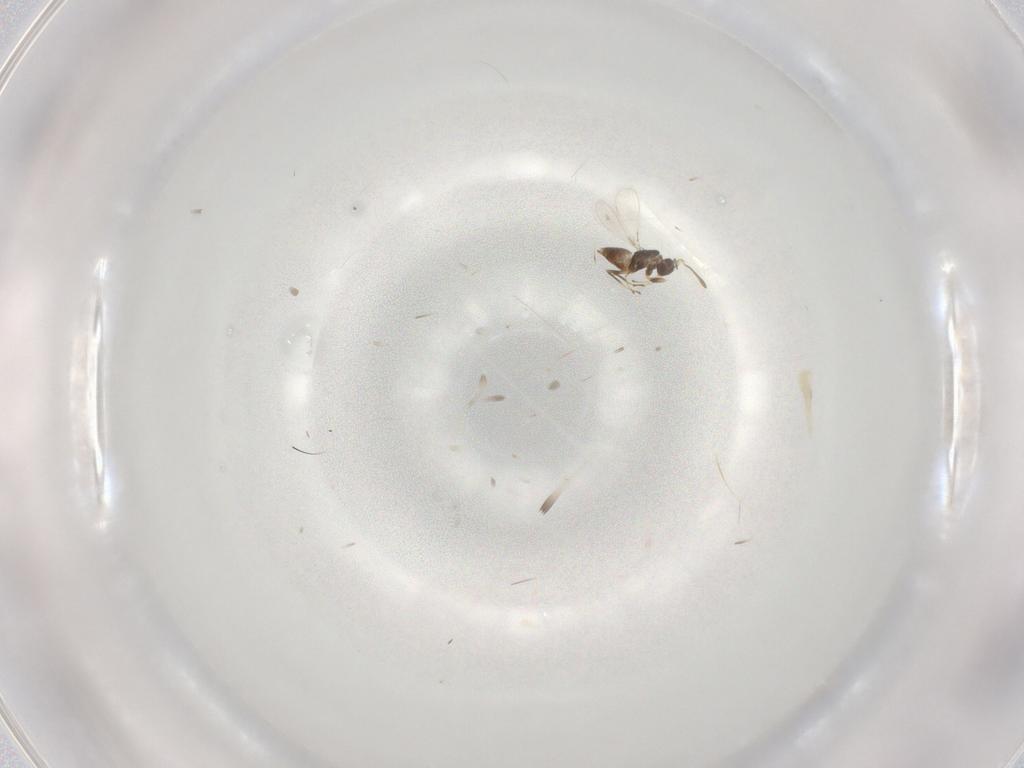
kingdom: Animalia
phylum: Arthropoda
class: Insecta
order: Hymenoptera
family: Mymaridae
